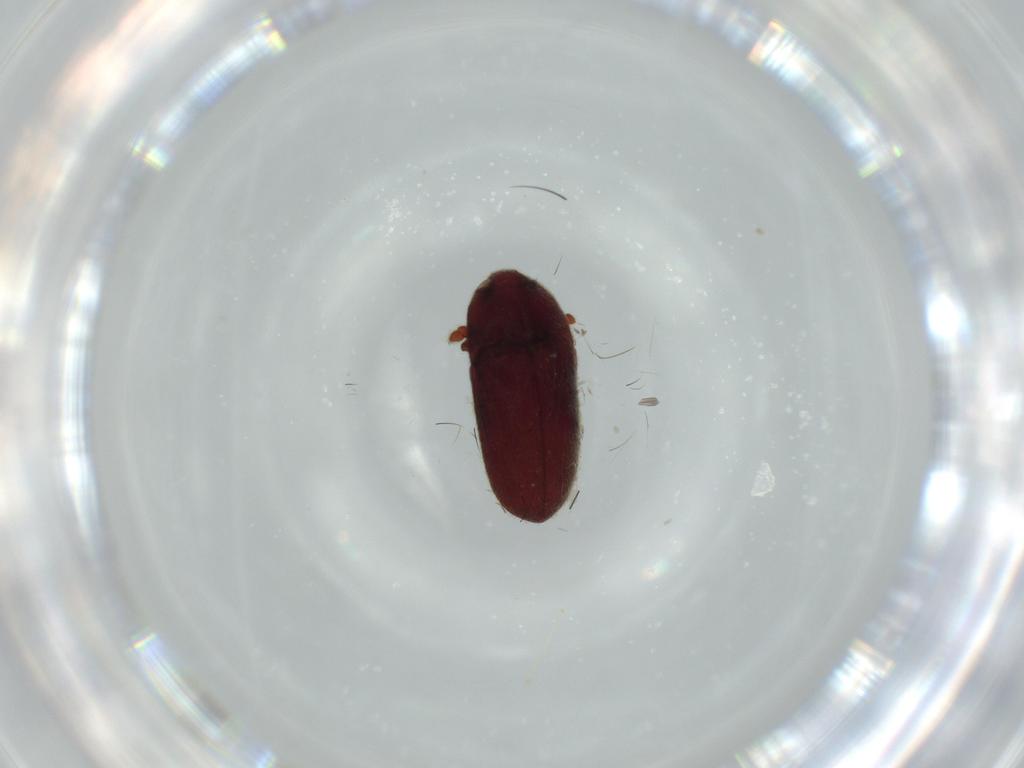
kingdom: Animalia
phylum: Arthropoda
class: Insecta
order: Coleoptera
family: Throscidae
